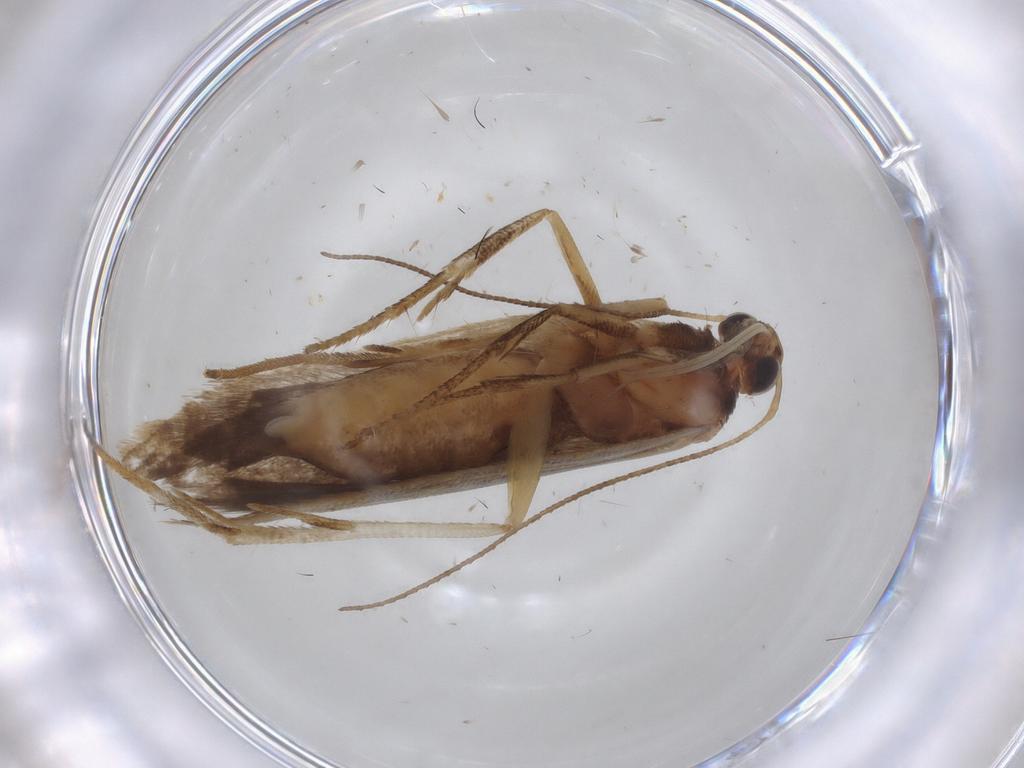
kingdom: Animalia
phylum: Arthropoda
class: Insecta
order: Lepidoptera
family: Gelechiidae
